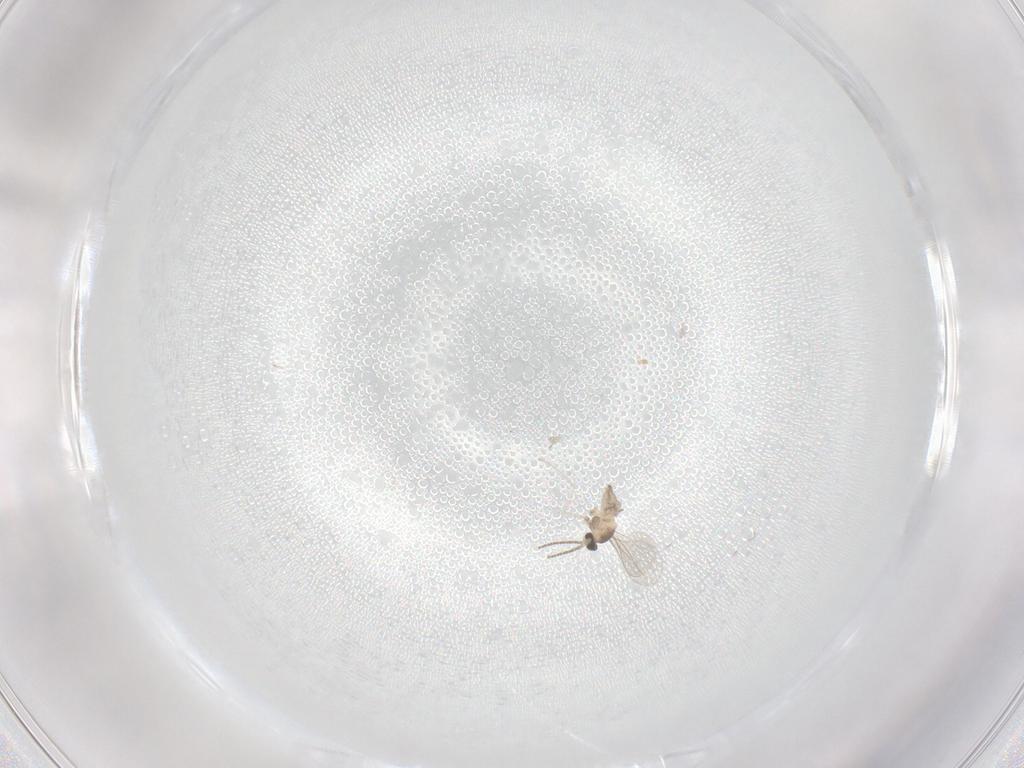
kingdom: Animalia
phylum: Arthropoda
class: Insecta
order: Diptera
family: Cecidomyiidae
